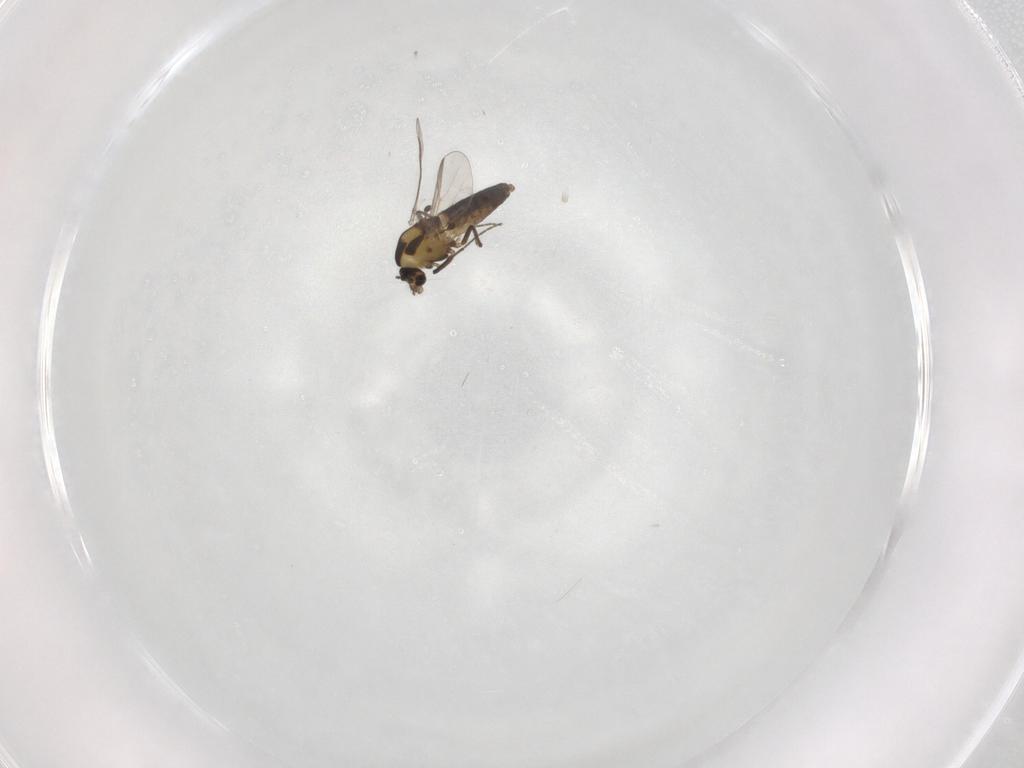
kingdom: Animalia
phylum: Arthropoda
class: Insecta
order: Diptera
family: Chironomidae
